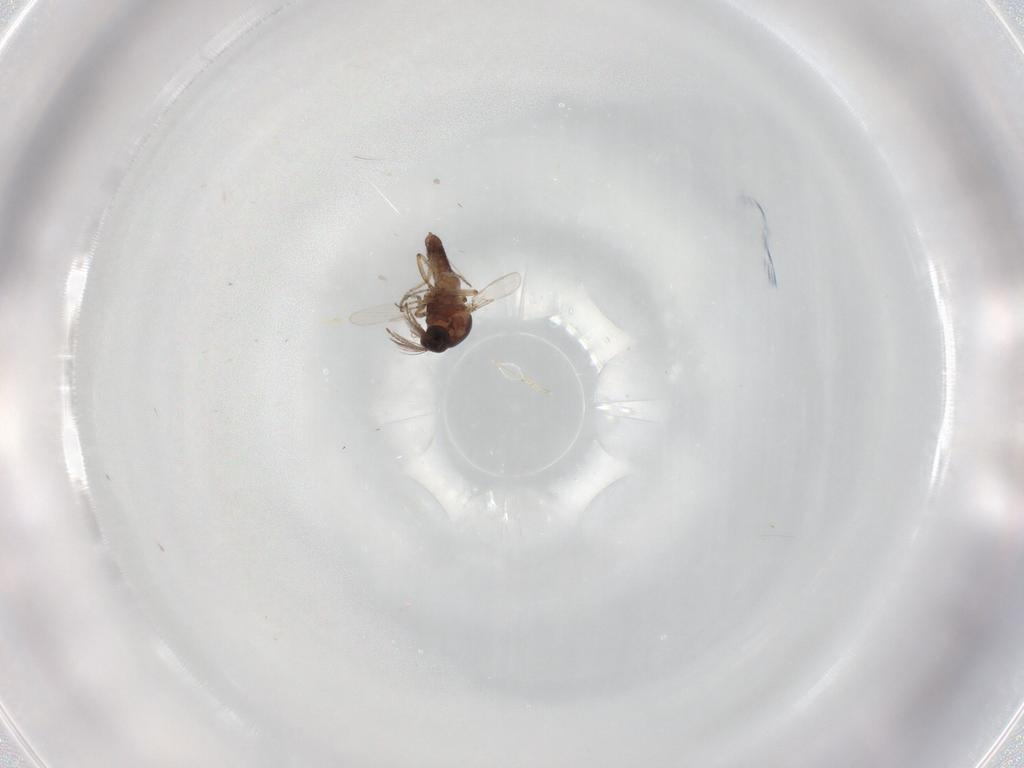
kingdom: Animalia
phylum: Arthropoda
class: Insecta
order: Diptera
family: Ceratopogonidae
